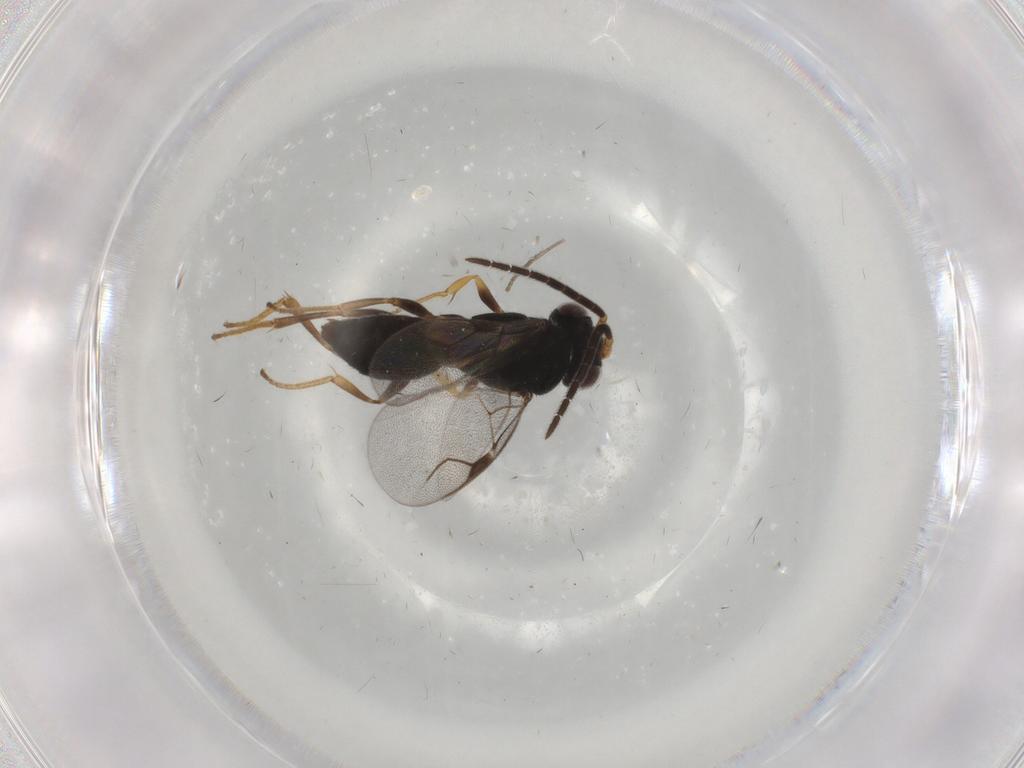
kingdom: Animalia
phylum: Arthropoda
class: Insecta
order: Hymenoptera
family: Dryinidae
